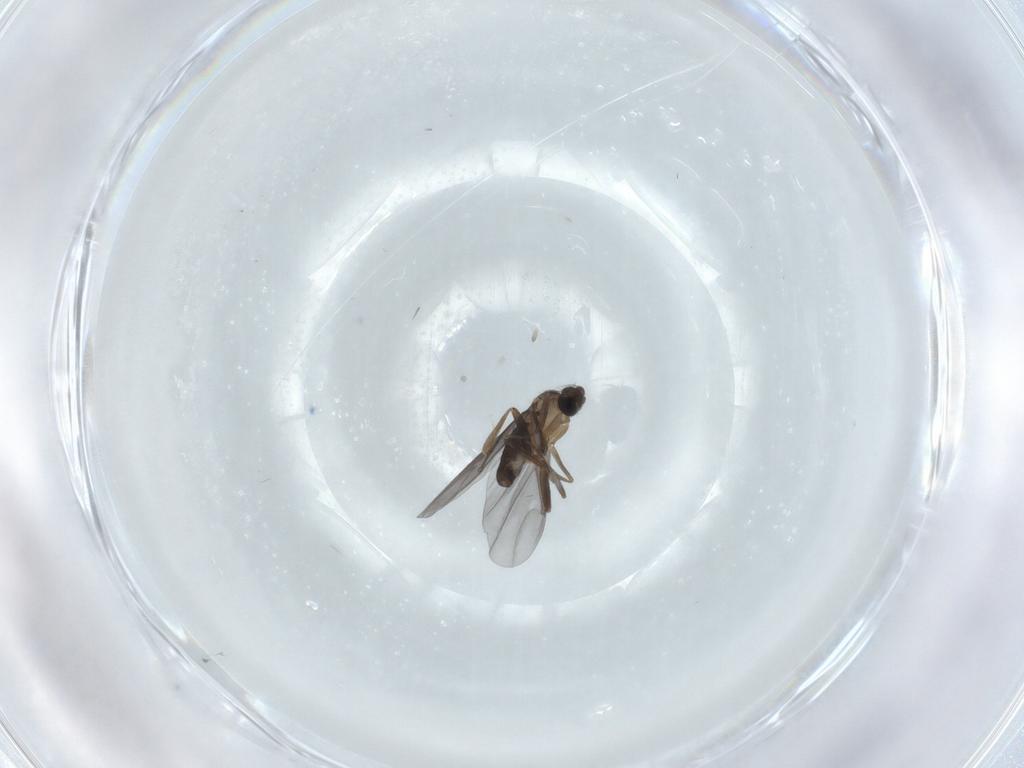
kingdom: Animalia
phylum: Arthropoda
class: Insecta
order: Diptera
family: Phoridae
